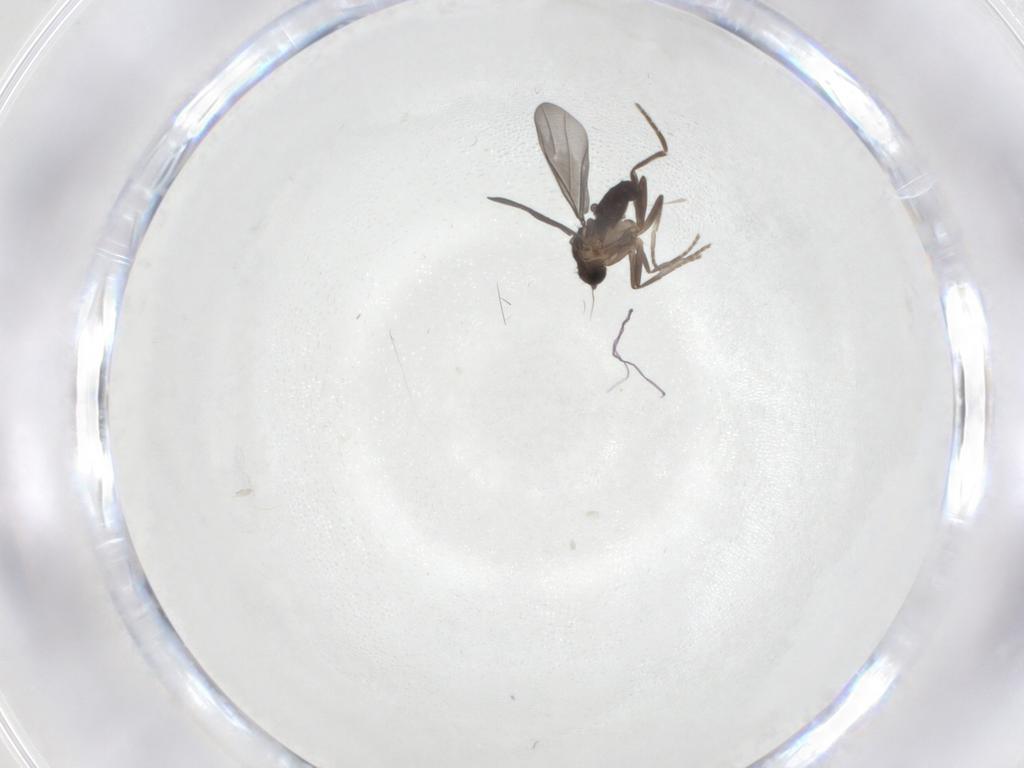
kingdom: Animalia
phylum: Arthropoda
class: Insecta
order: Diptera
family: Phoridae
